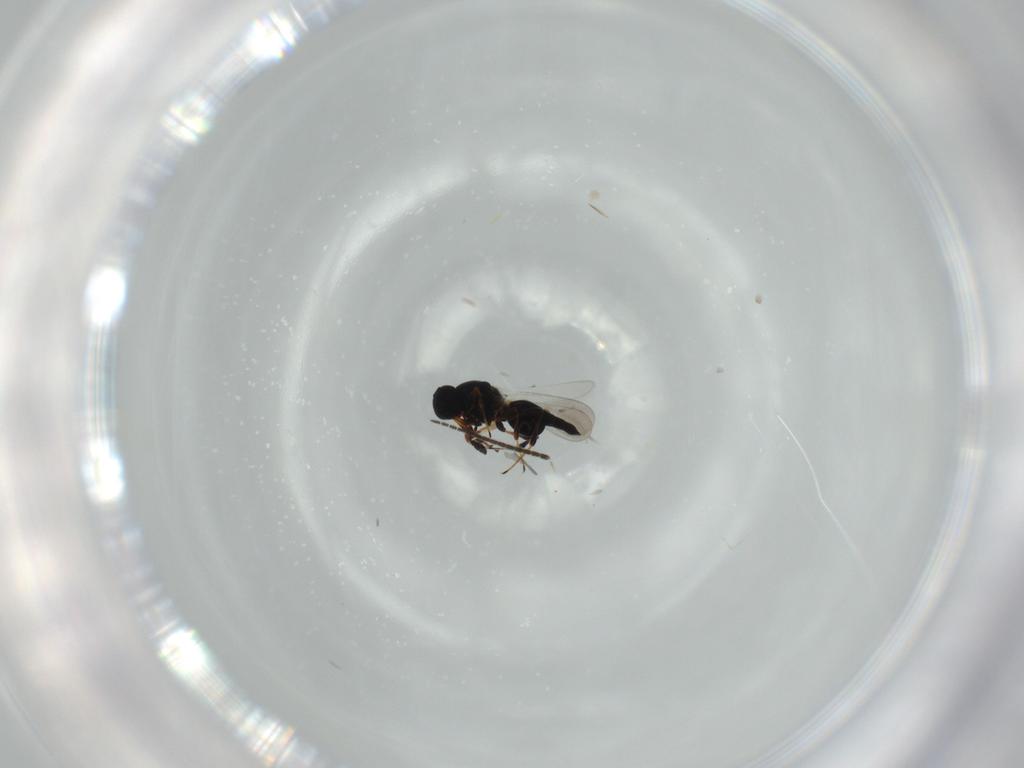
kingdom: Animalia
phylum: Arthropoda
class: Insecta
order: Hymenoptera
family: Platygastridae
